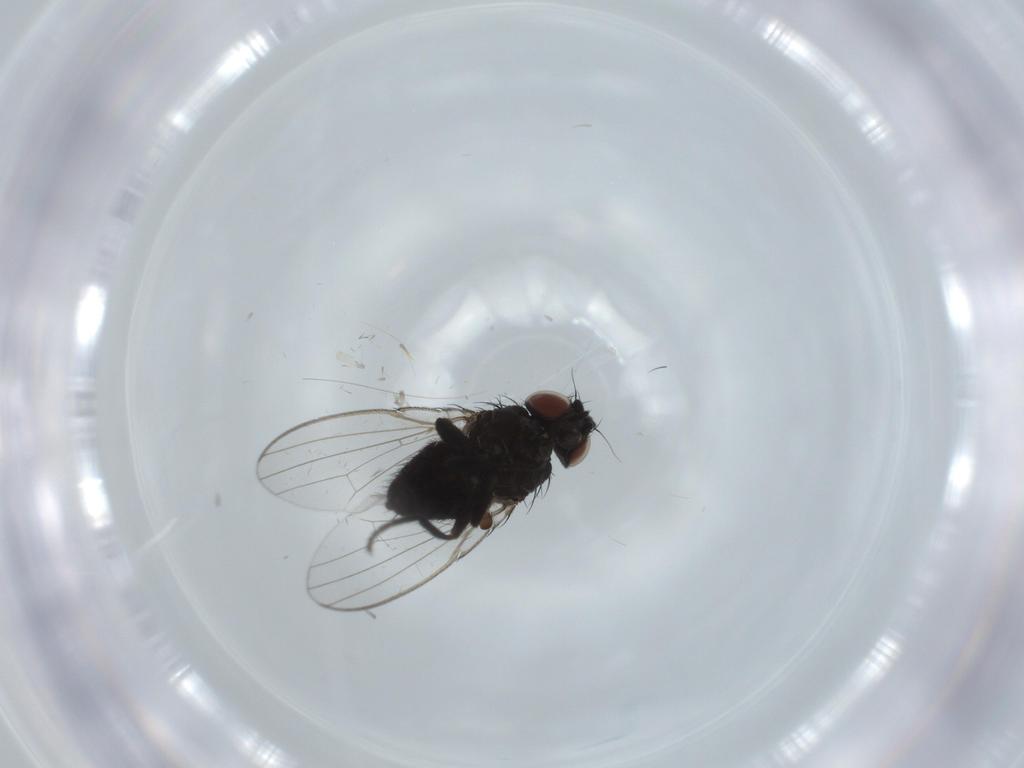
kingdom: Animalia
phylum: Arthropoda
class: Insecta
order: Diptera
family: Milichiidae
